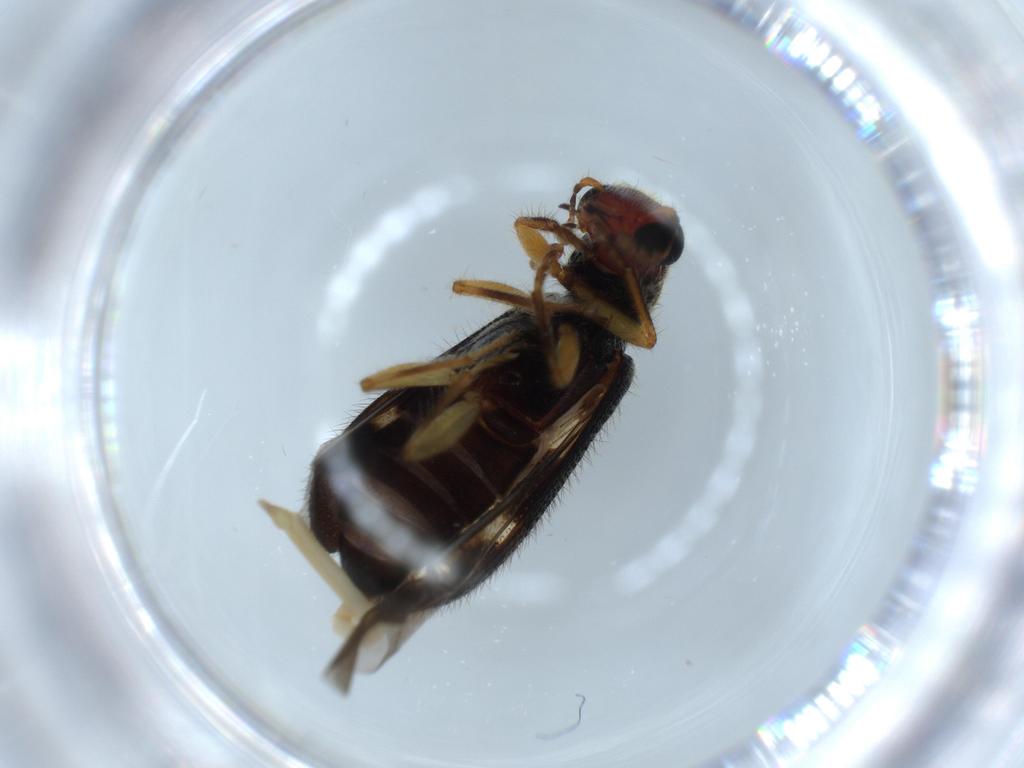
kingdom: Animalia
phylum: Arthropoda
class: Insecta
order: Coleoptera
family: Cleridae
